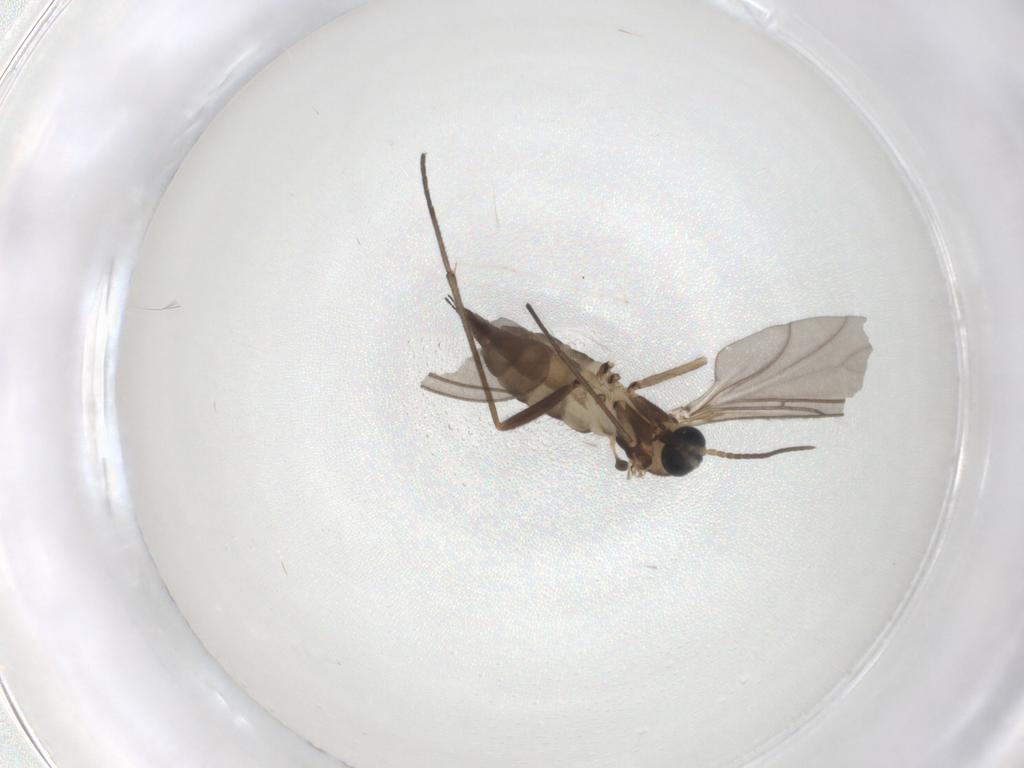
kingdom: Animalia
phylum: Arthropoda
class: Insecta
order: Diptera
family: Sciaridae
